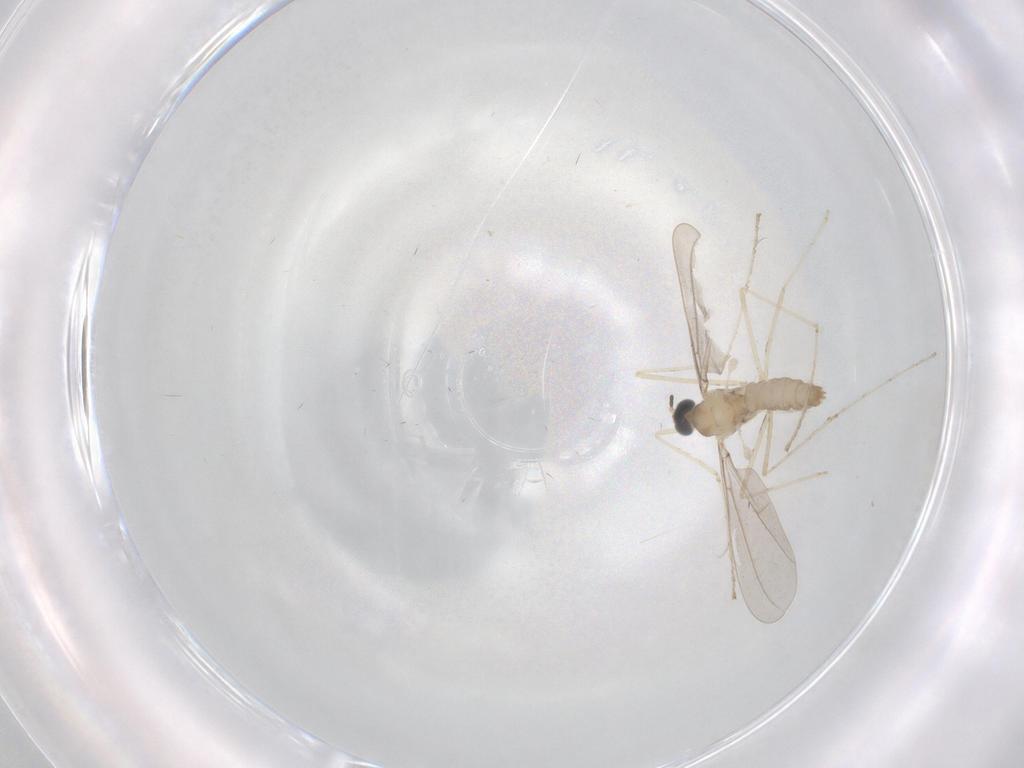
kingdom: Animalia
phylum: Arthropoda
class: Insecta
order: Diptera
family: Cecidomyiidae
